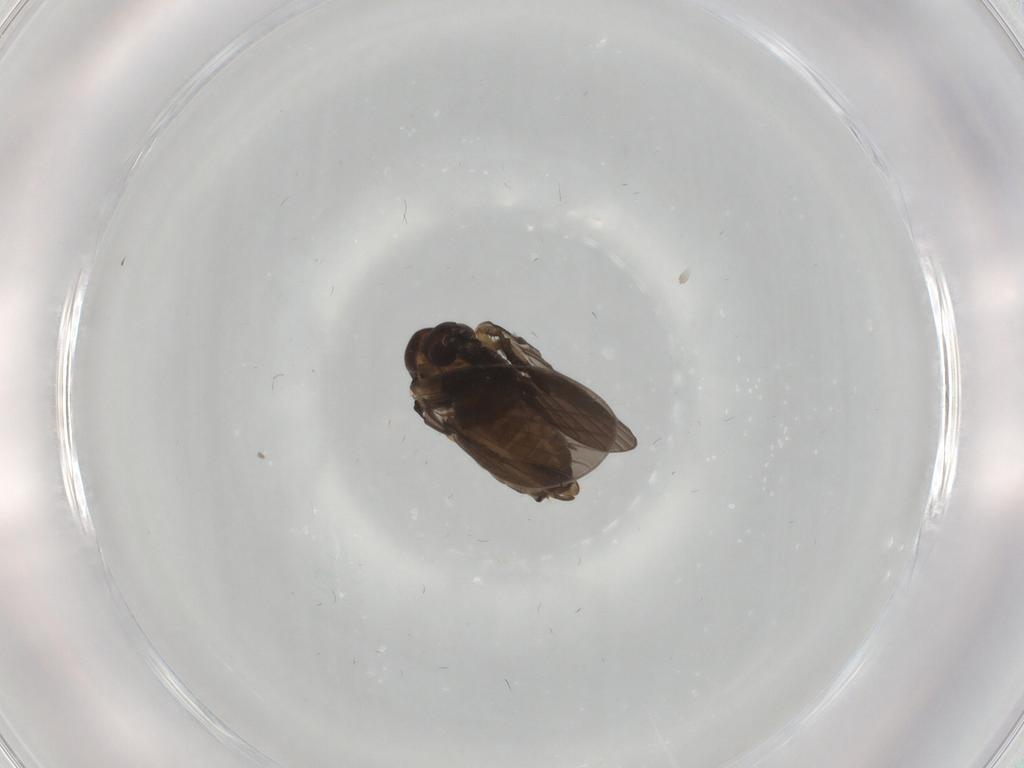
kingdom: Animalia
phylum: Arthropoda
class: Insecta
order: Diptera
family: Psychodidae
